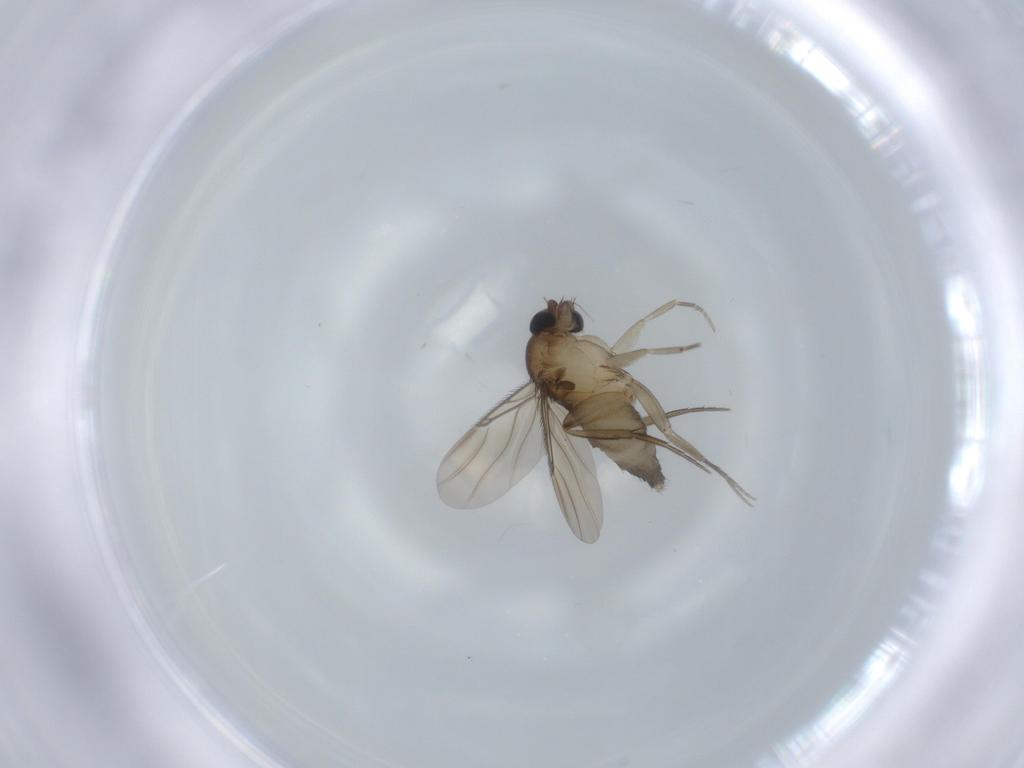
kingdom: Animalia
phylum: Arthropoda
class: Insecta
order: Diptera
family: Phoridae
